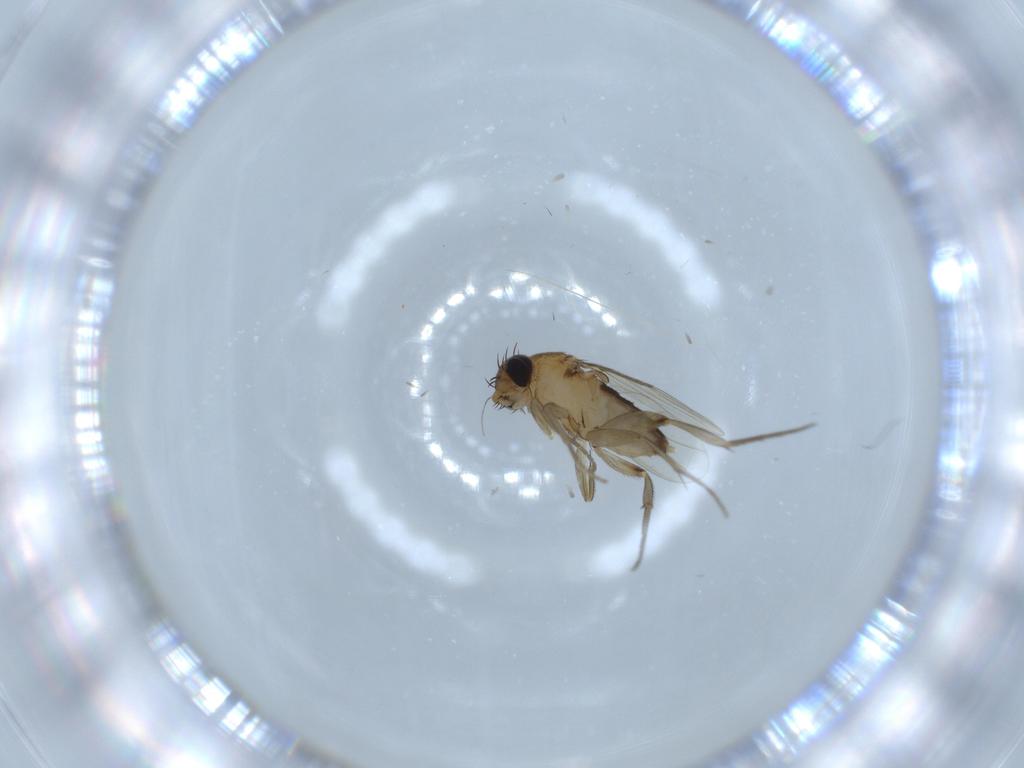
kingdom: Animalia
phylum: Arthropoda
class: Insecta
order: Diptera
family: Phoridae
